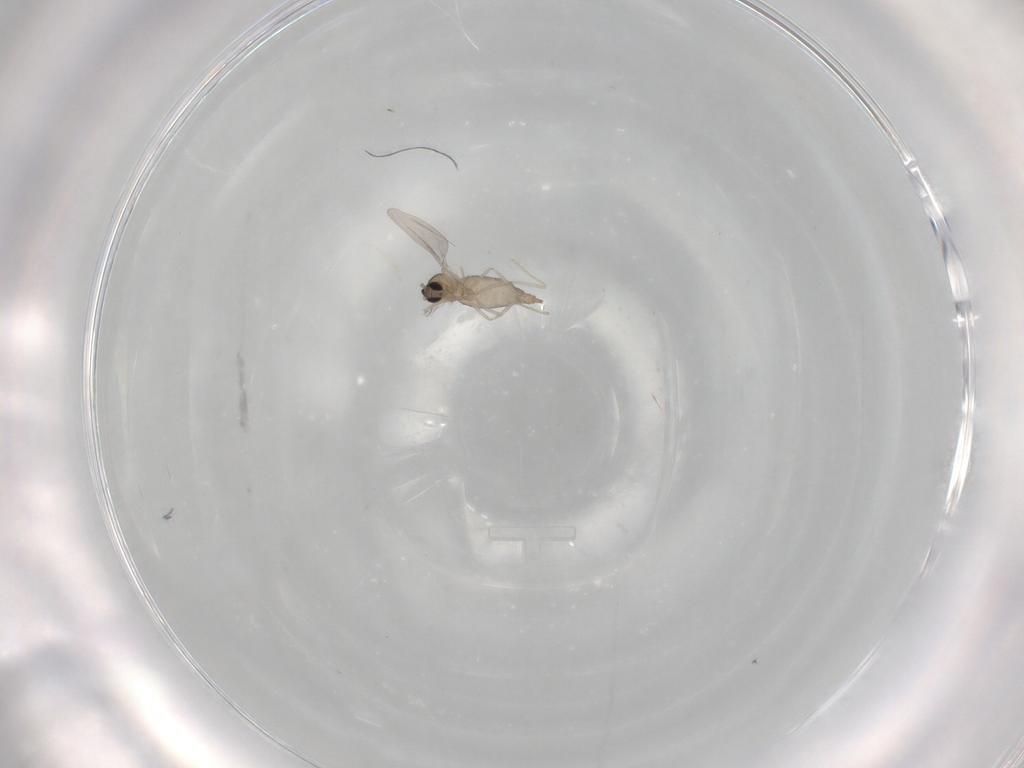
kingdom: Animalia
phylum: Arthropoda
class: Insecta
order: Diptera
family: Cecidomyiidae
